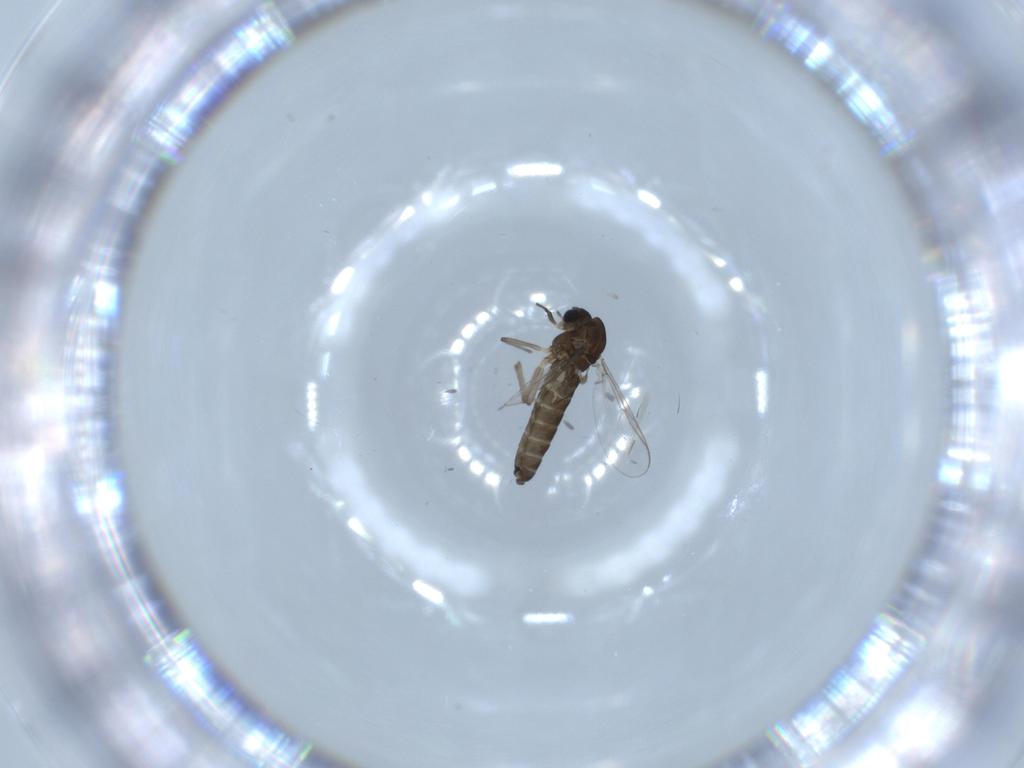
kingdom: Animalia
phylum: Arthropoda
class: Insecta
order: Diptera
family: Chironomidae
